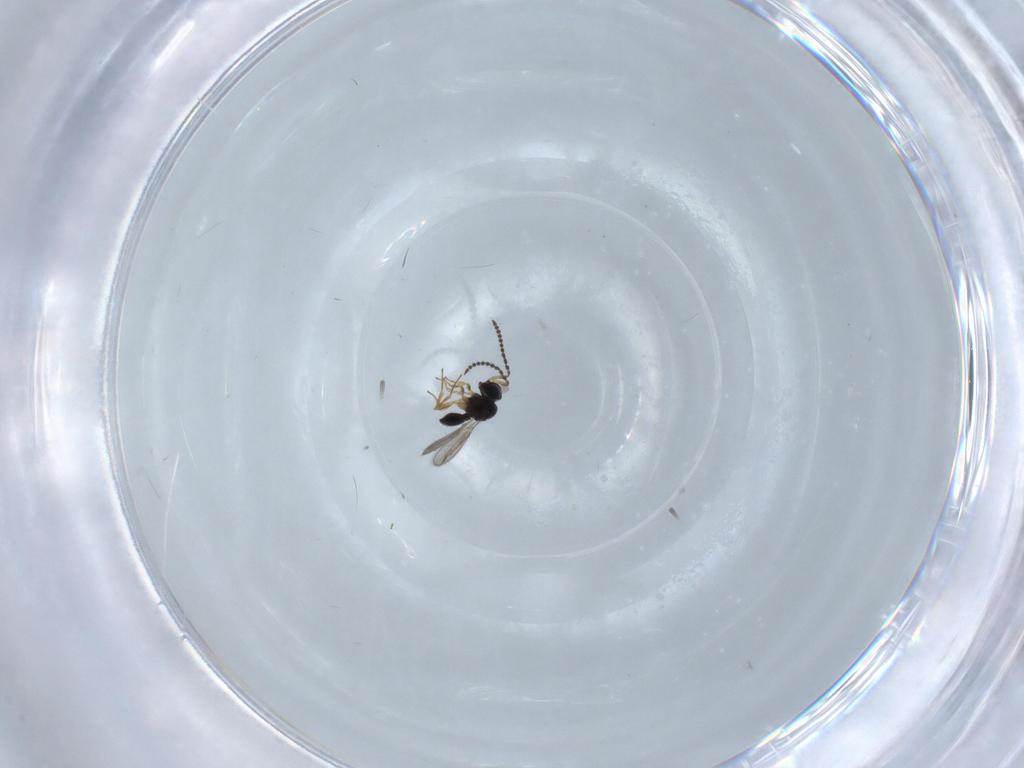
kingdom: Animalia
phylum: Arthropoda
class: Insecta
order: Hymenoptera
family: Scelionidae
